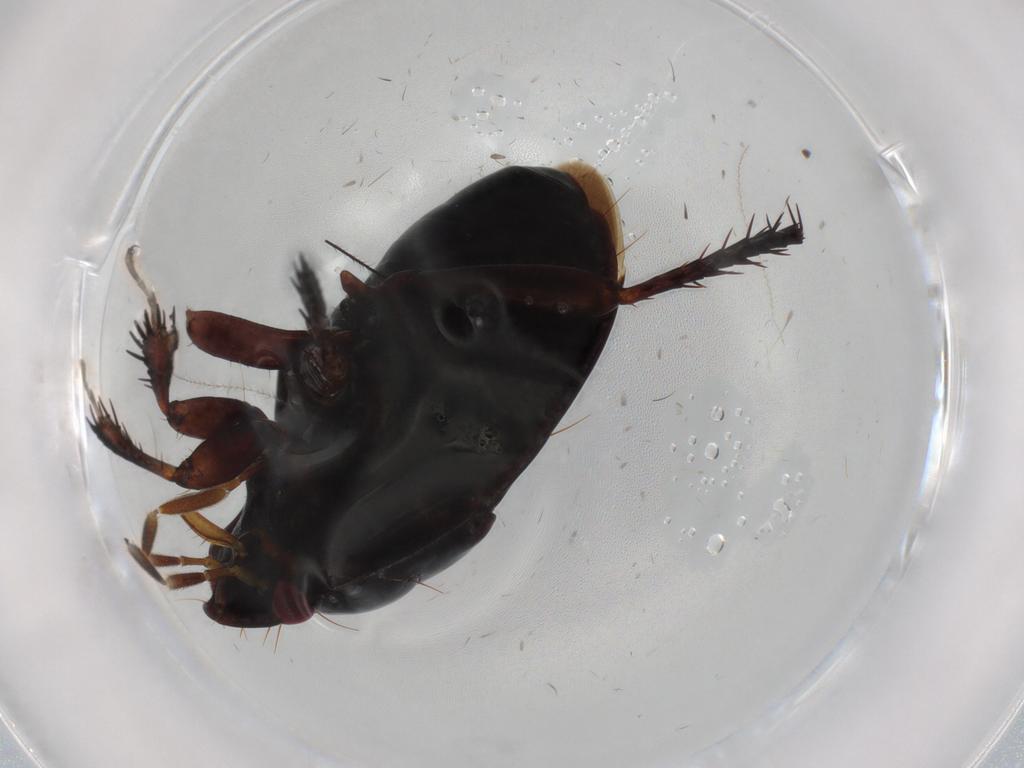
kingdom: Animalia
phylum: Arthropoda
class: Insecta
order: Hemiptera
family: Cydnidae
